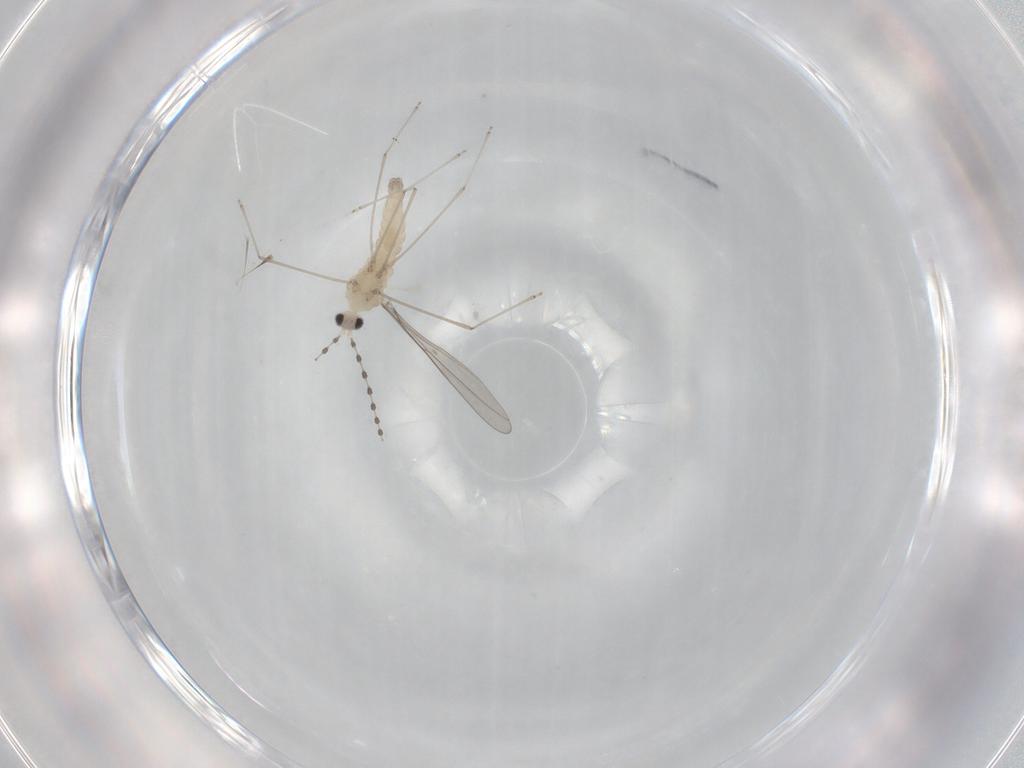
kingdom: Animalia
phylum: Arthropoda
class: Insecta
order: Diptera
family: Cecidomyiidae
